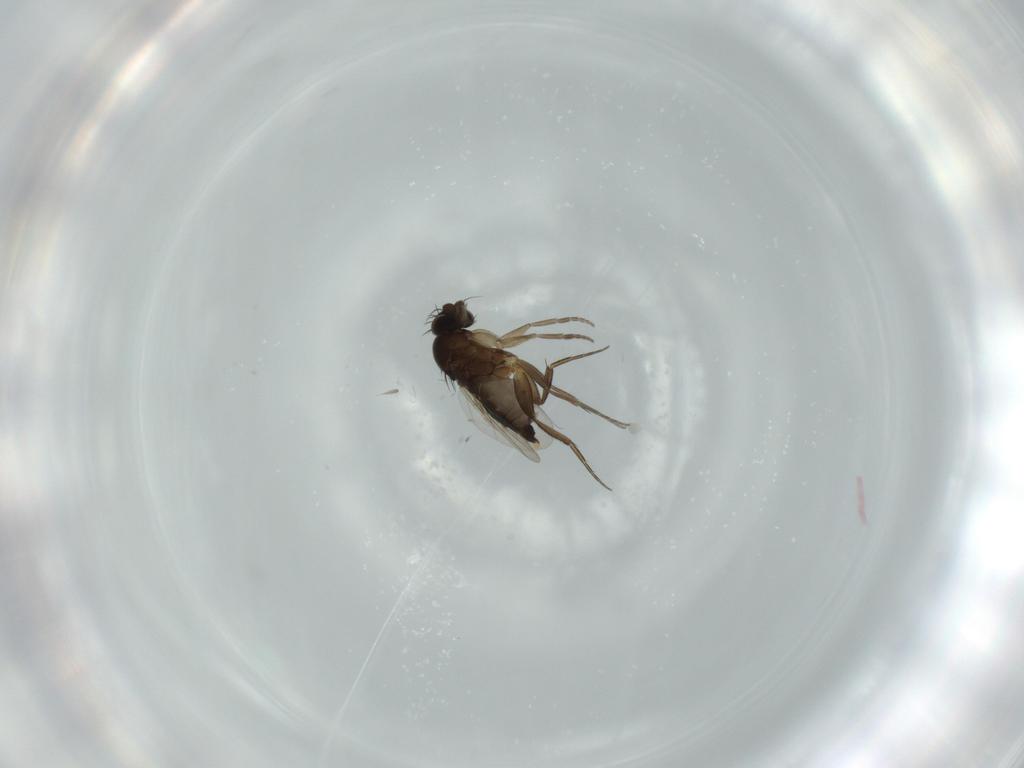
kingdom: Animalia
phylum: Arthropoda
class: Insecta
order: Diptera
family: Phoridae
